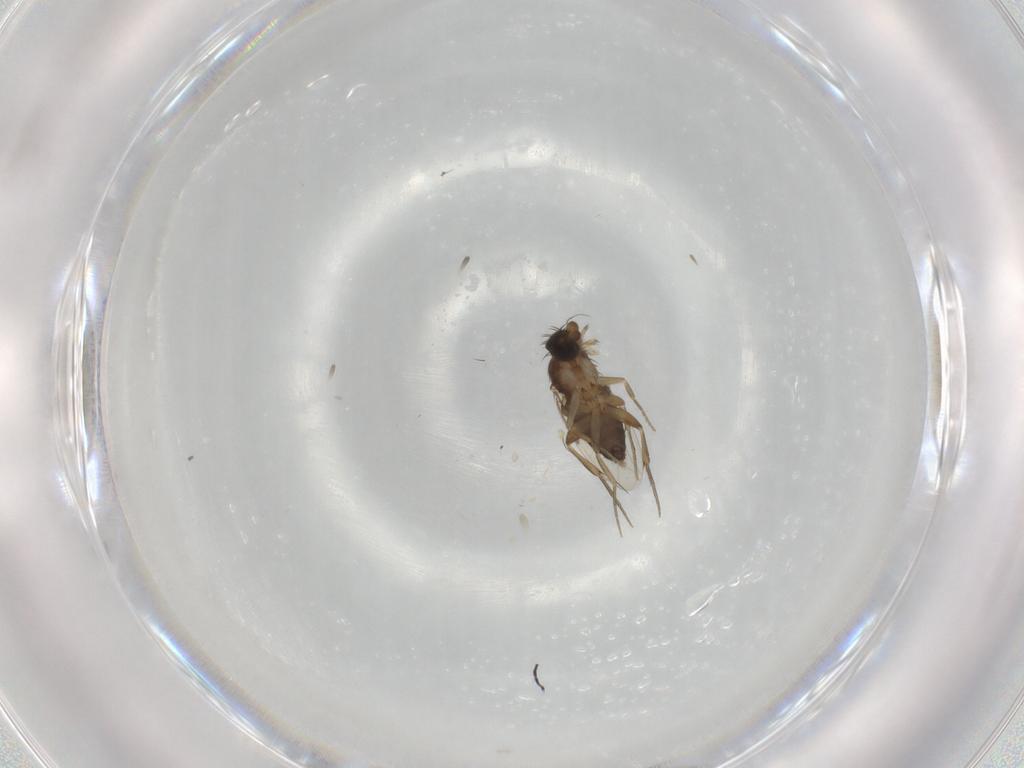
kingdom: Animalia
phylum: Arthropoda
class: Insecta
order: Diptera
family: Phoridae
